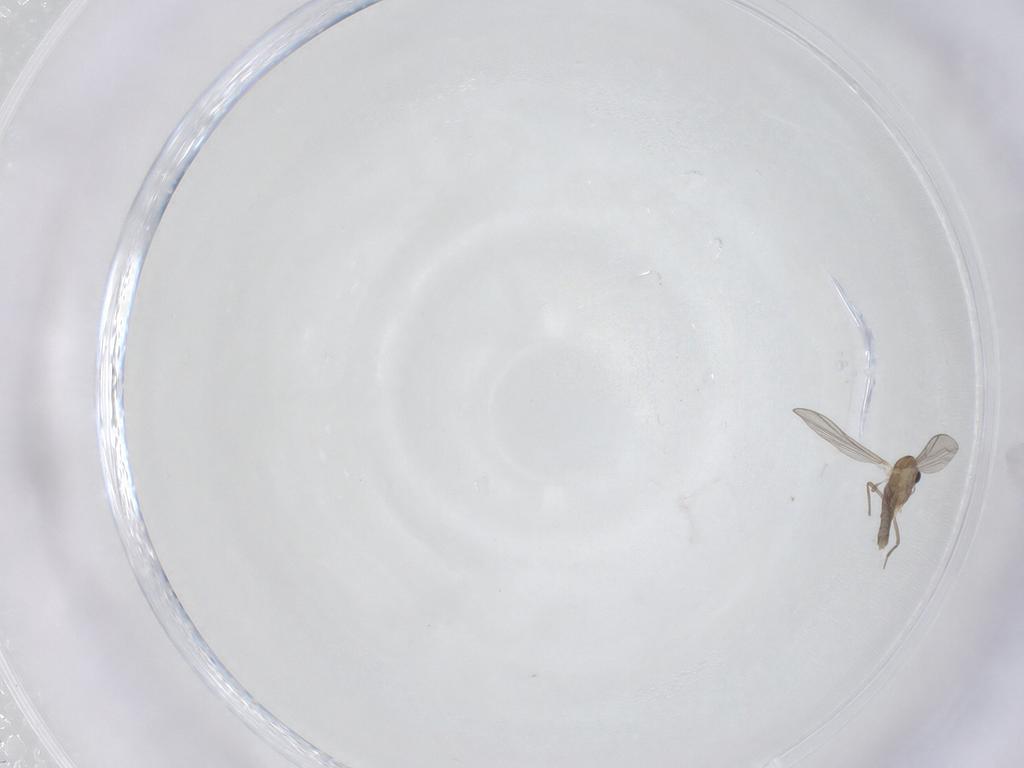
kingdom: Animalia
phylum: Arthropoda
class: Insecta
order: Diptera
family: Chironomidae
